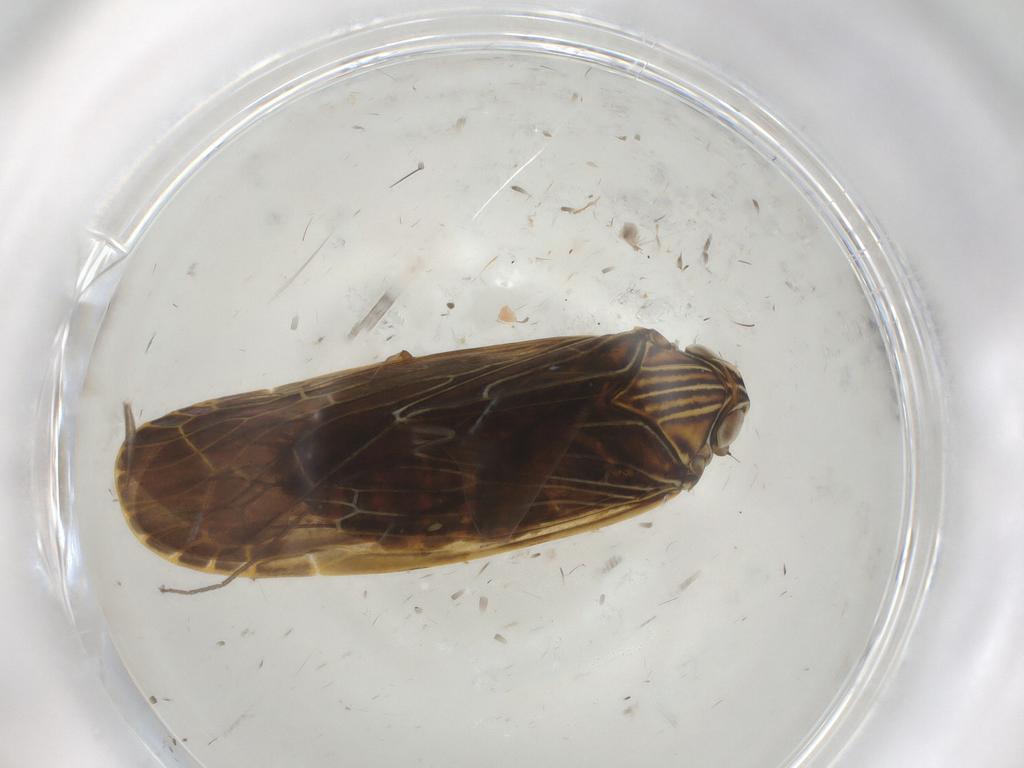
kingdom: Animalia
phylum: Arthropoda
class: Insecta
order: Hemiptera
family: Achilidae
